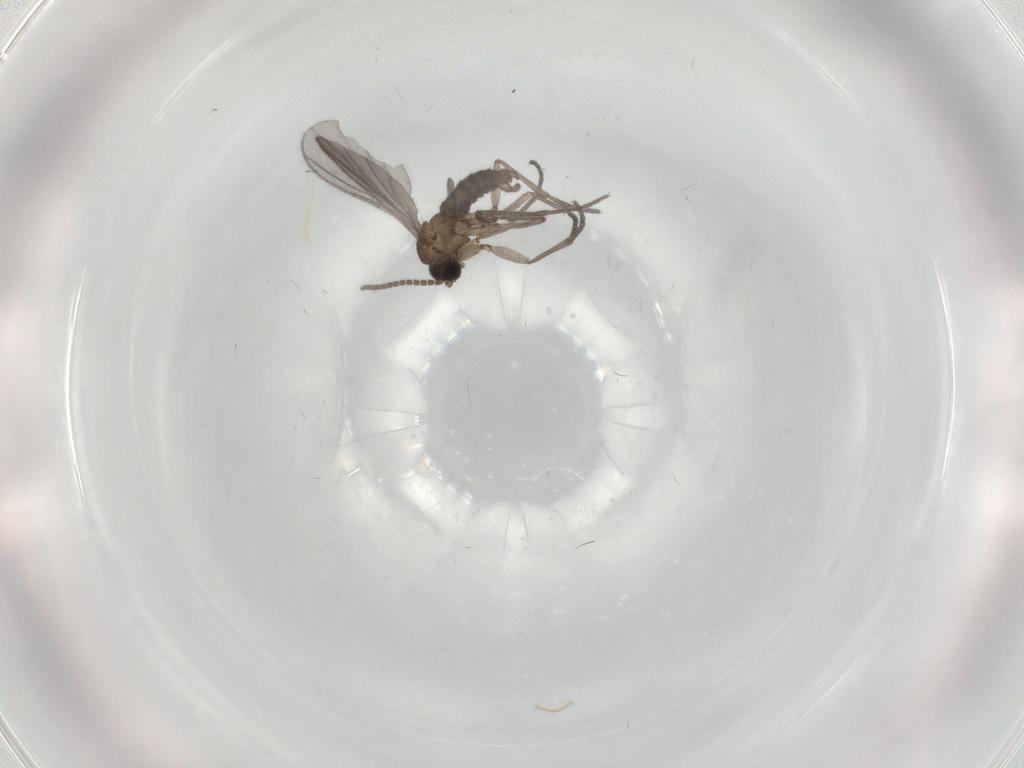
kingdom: Animalia
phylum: Arthropoda
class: Insecta
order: Diptera
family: Sciaridae
